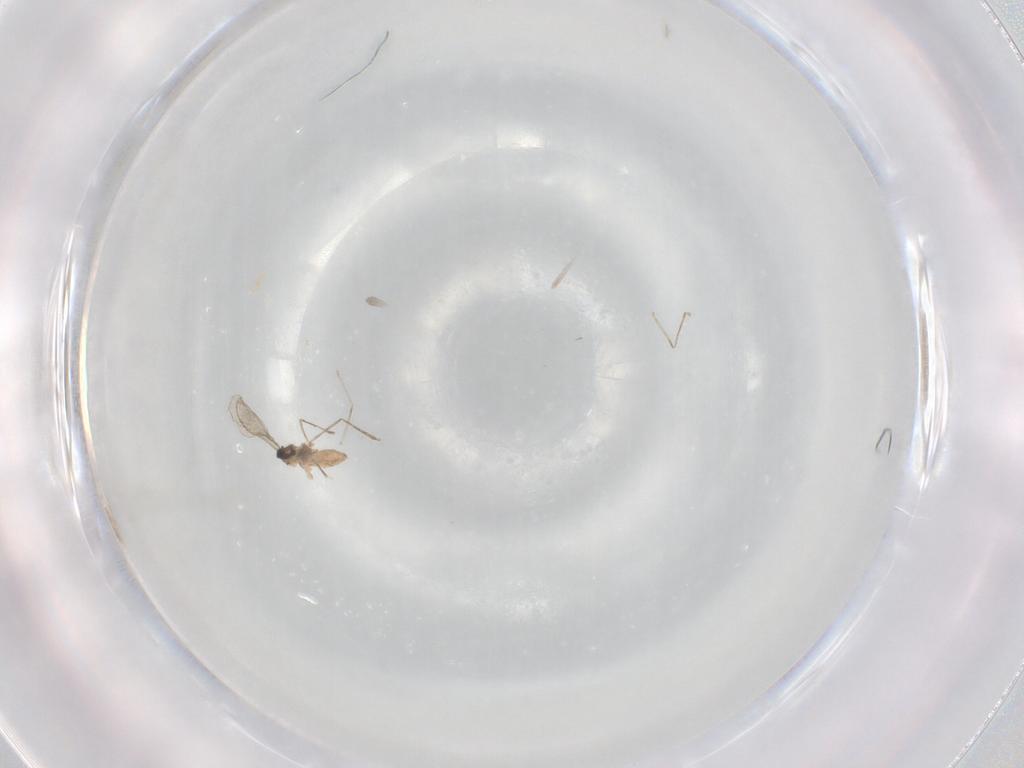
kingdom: Animalia
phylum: Arthropoda
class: Insecta
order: Diptera
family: Cecidomyiidae
